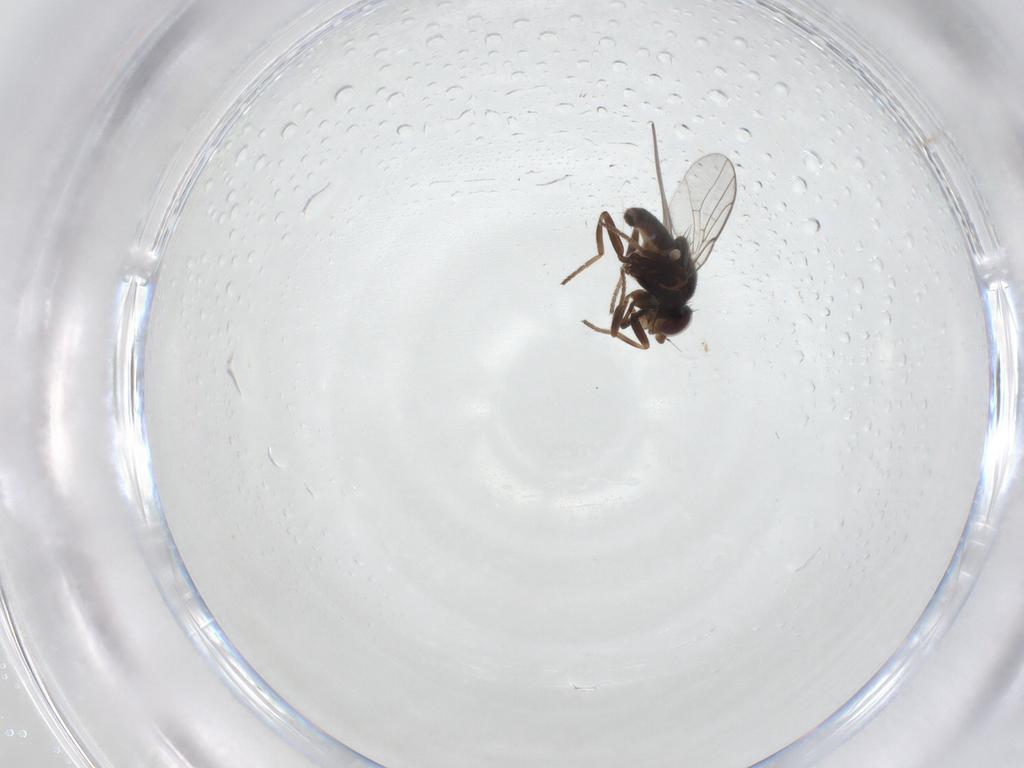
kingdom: Animalia
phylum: Arthropoda
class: Insecta
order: Diptera
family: Chloropidae
